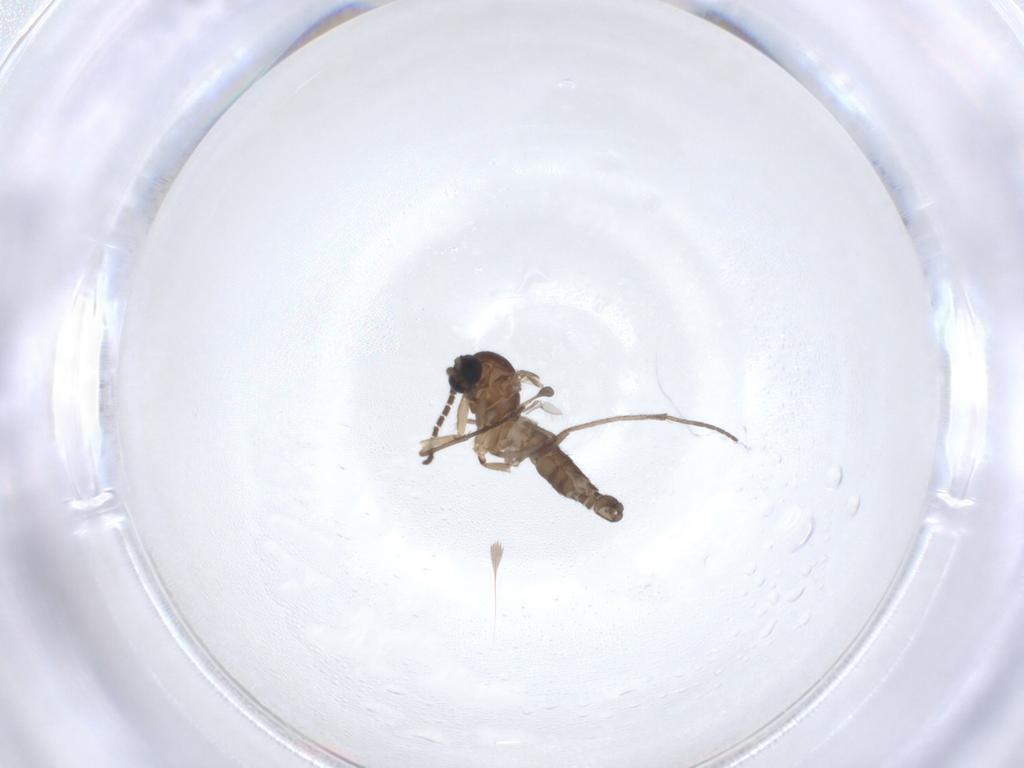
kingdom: Animalia
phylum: Arthropoda
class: Insecta
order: Diptera
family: Sciaridae
